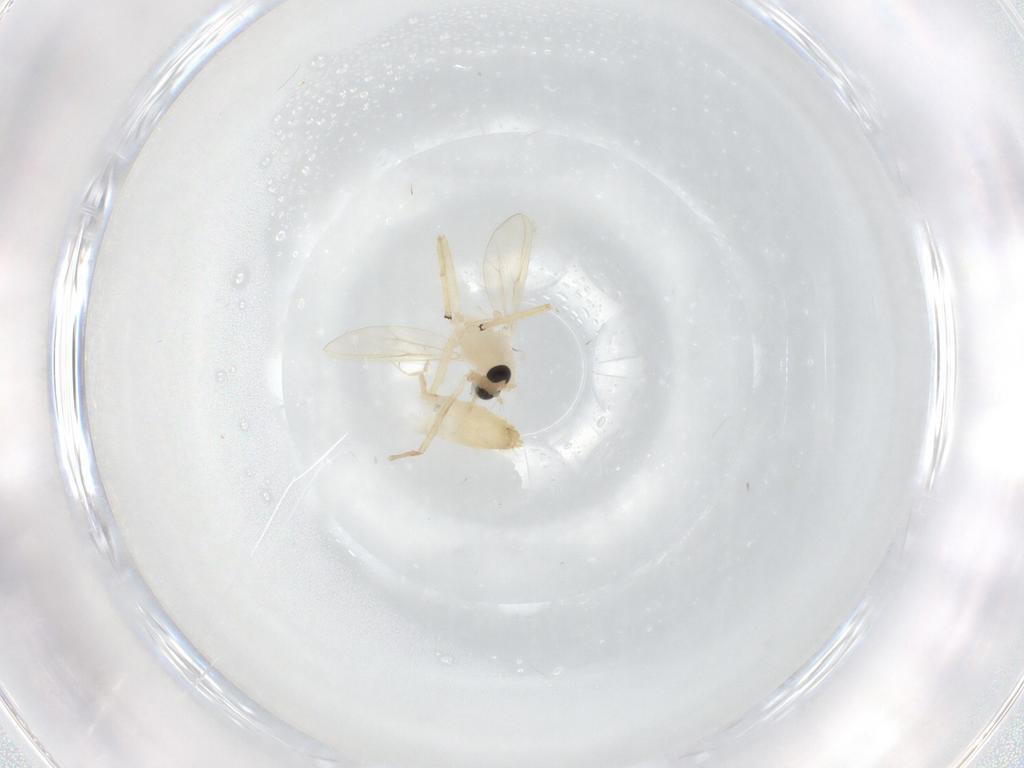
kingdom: Animalia
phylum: Arthropoda
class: Insecta
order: Diptera
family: Chironomidae
